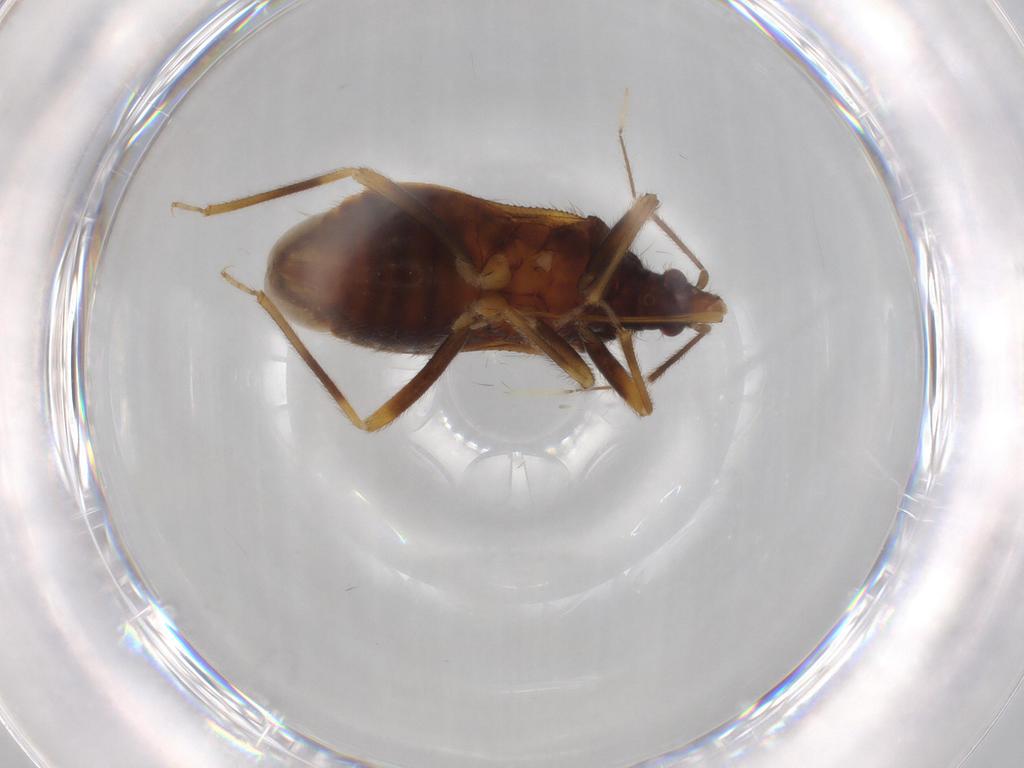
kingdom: Animalia
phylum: Arthropoda
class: Insecta
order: Hemiptera
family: Anthocoridae
